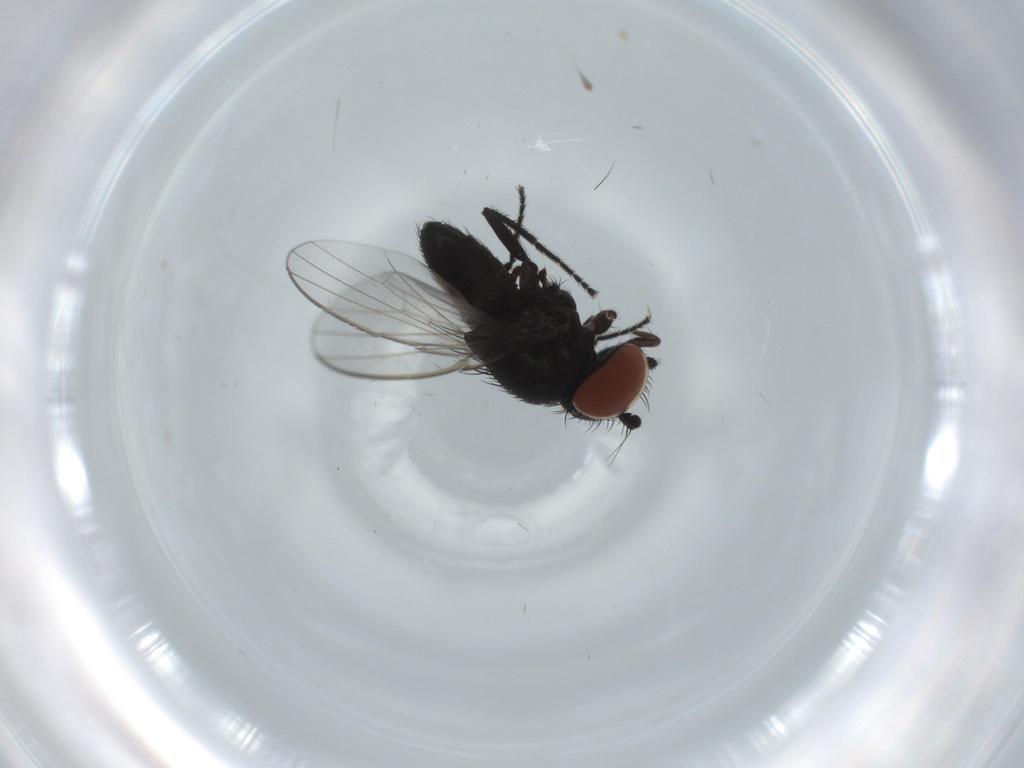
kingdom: Animalia
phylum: Arthropoda
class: Insecta
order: Diptera
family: Milichiidae
